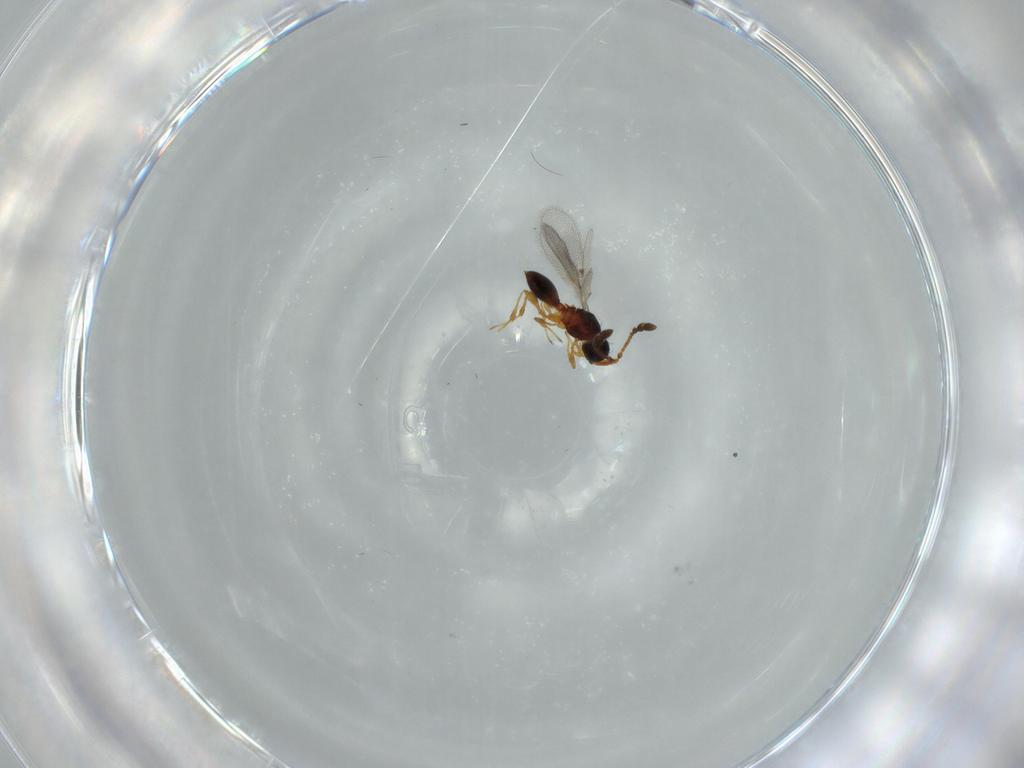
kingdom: Animalia
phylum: Arthropoda
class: Insecta
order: Hymenoptera
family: Diapriidae
